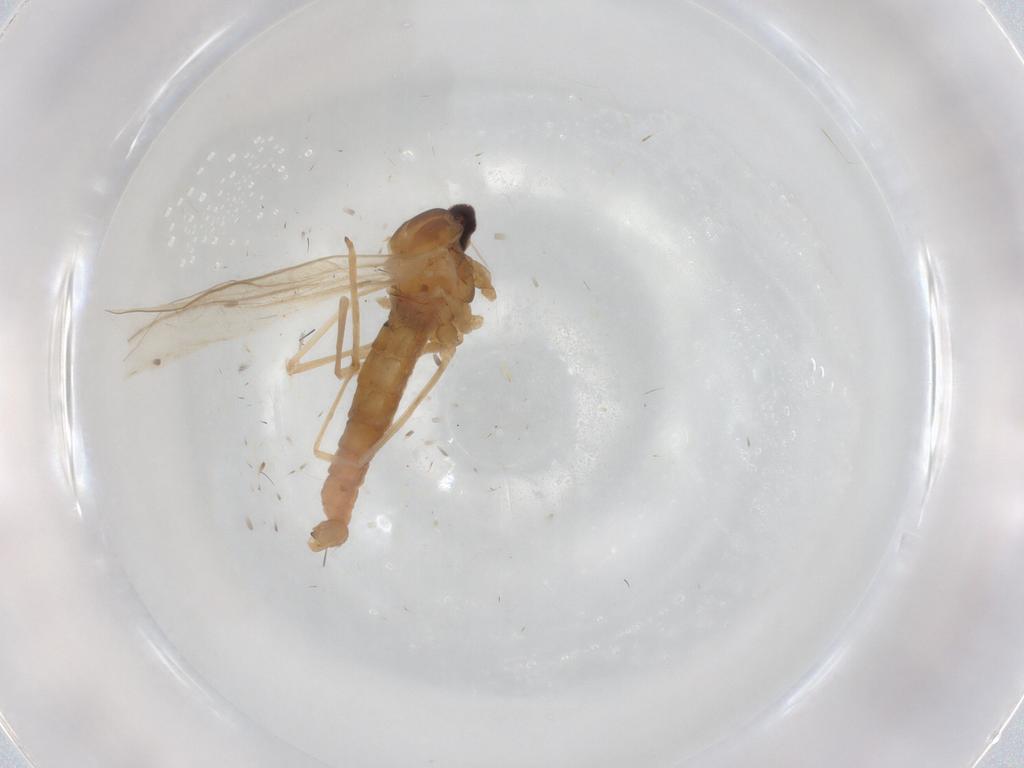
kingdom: Animalia
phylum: Arthropoda
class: Insecta
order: Diptera
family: Cecidomyiidae
